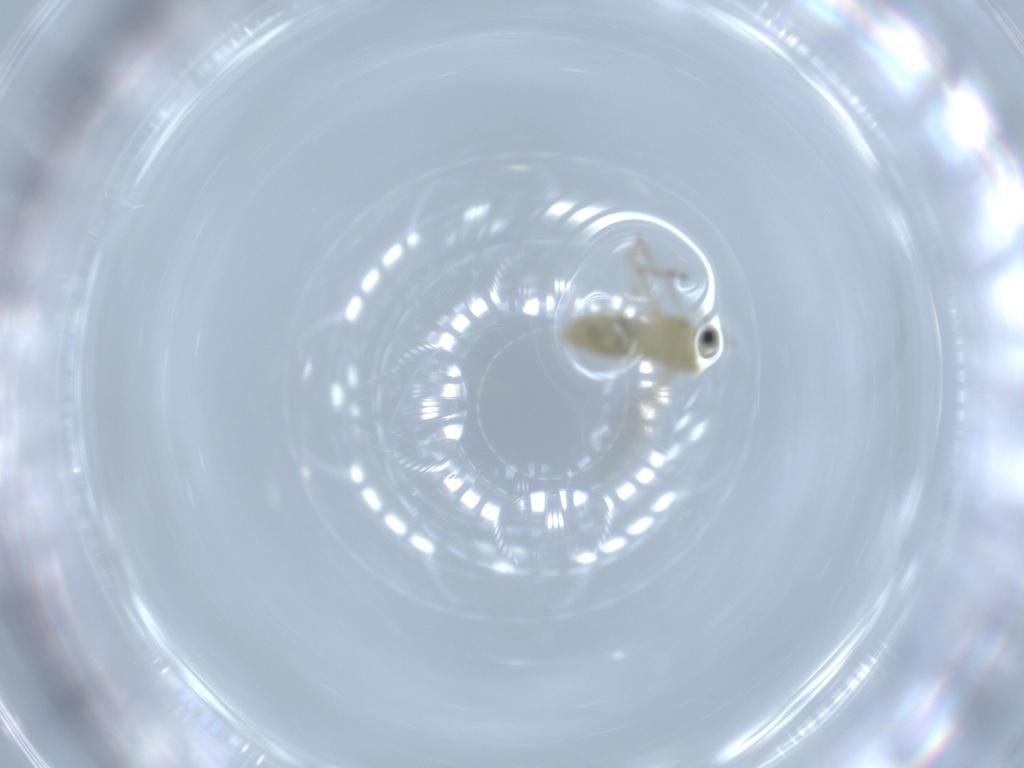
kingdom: Animalia
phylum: Arthropoda
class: Insecta
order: Diptera
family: Chironomidae
